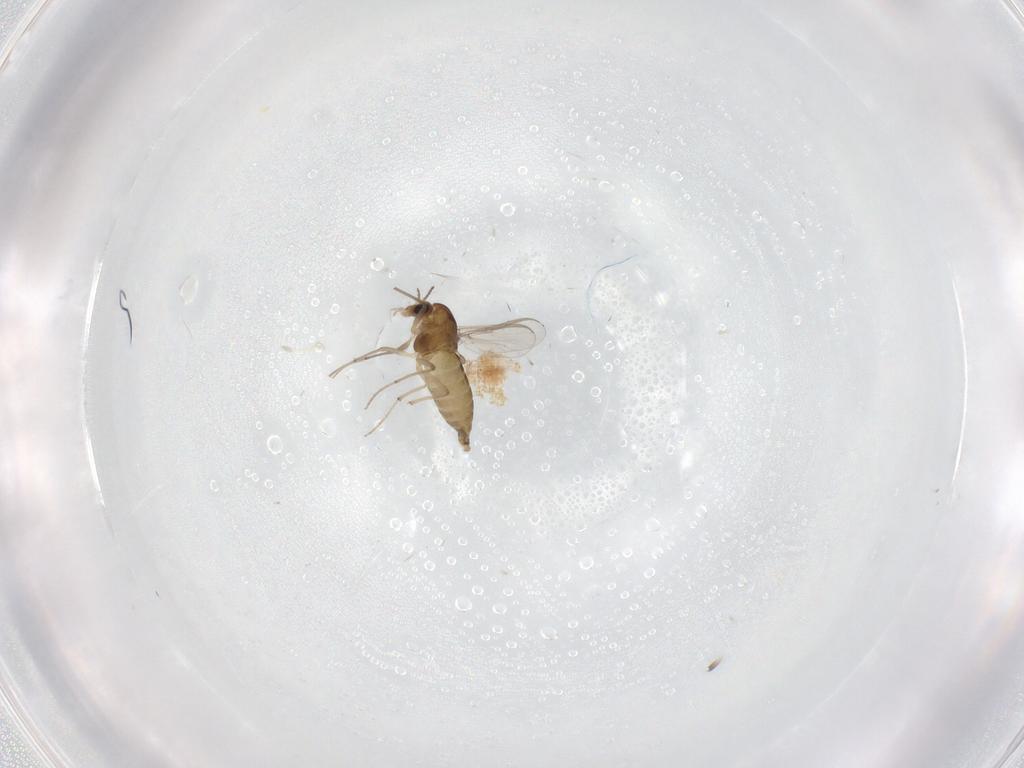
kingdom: Animalia
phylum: Arthropoda
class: Insecta
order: Diptera
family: Chironomidae
